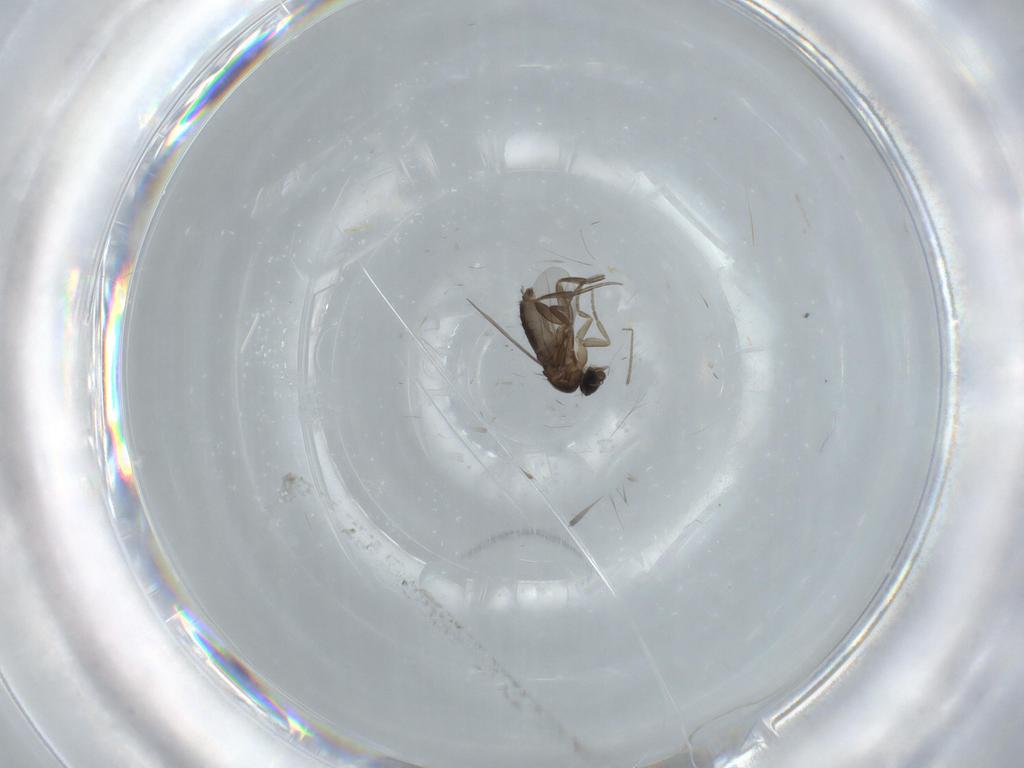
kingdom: Animalia
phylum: Arthropoda
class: Insecta
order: Diptera
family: Phoridae
